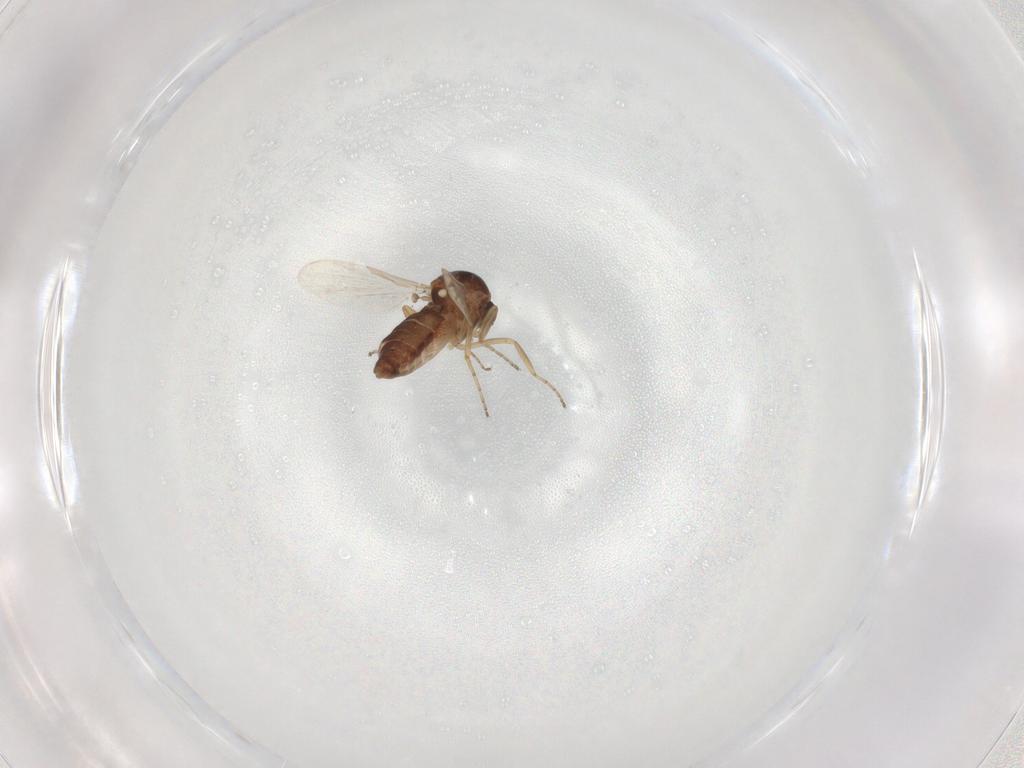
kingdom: Animalia
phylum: Arthropoda
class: Insecta
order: Diptera
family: Ceratopogonidae
